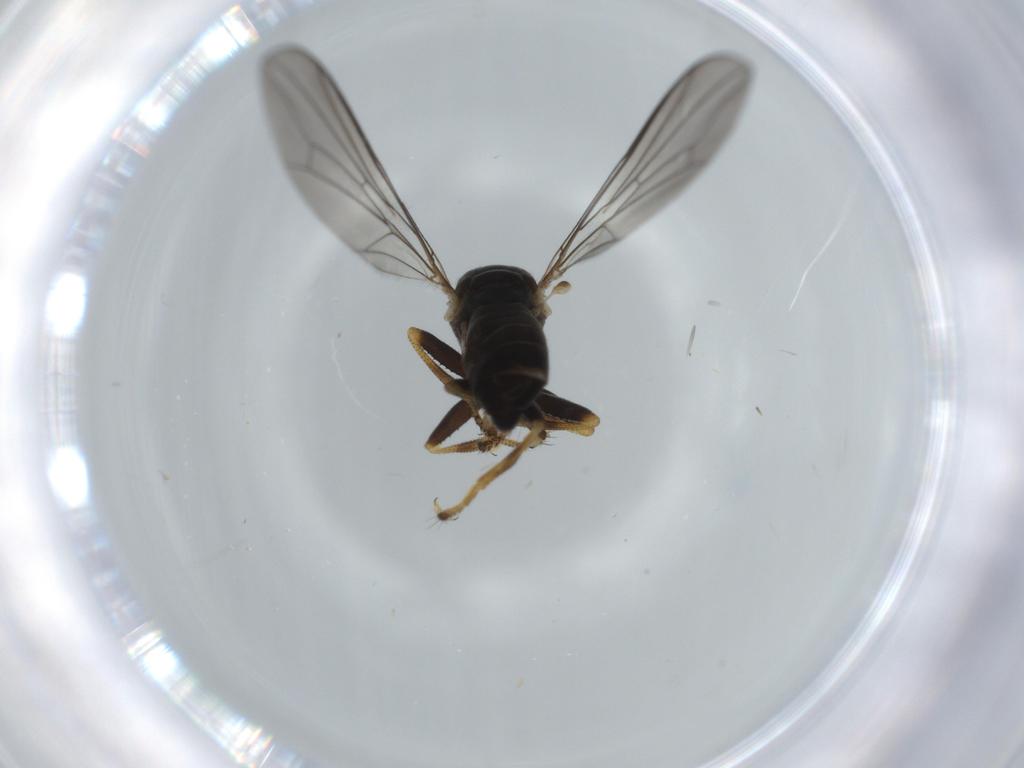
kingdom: Animalia
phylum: Arthropoda
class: Insecta
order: Diptera
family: Pipunculidae
